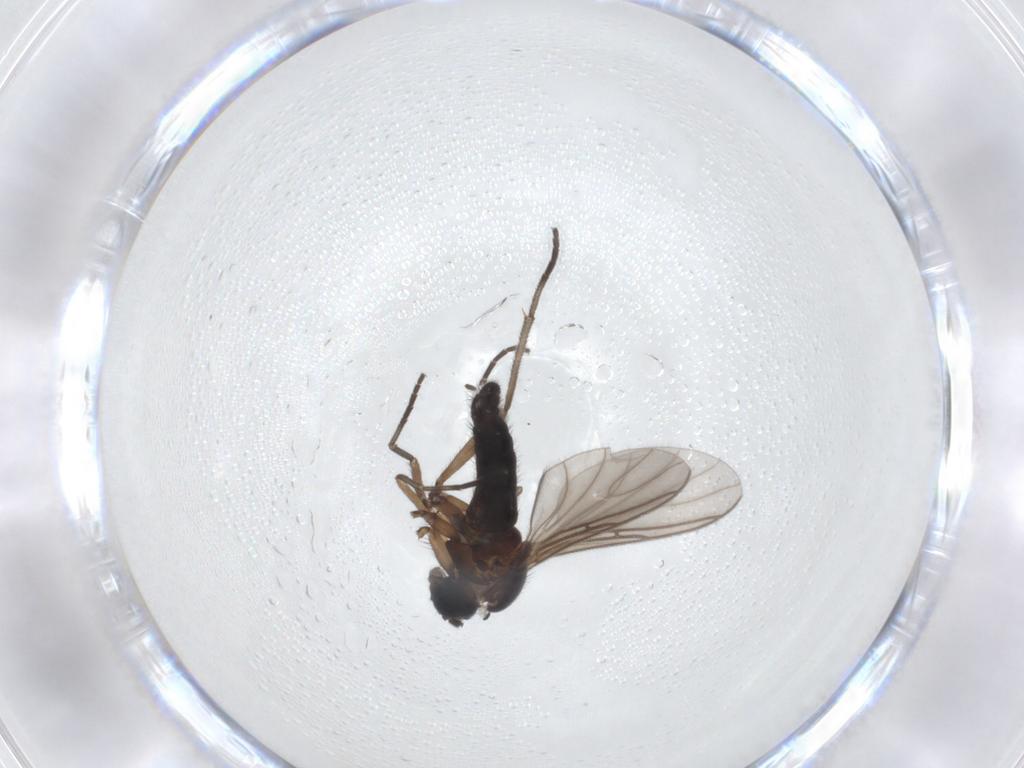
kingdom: Animalia
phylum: Arthropoda
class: Insecta
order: Diptera
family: Sciaridae
